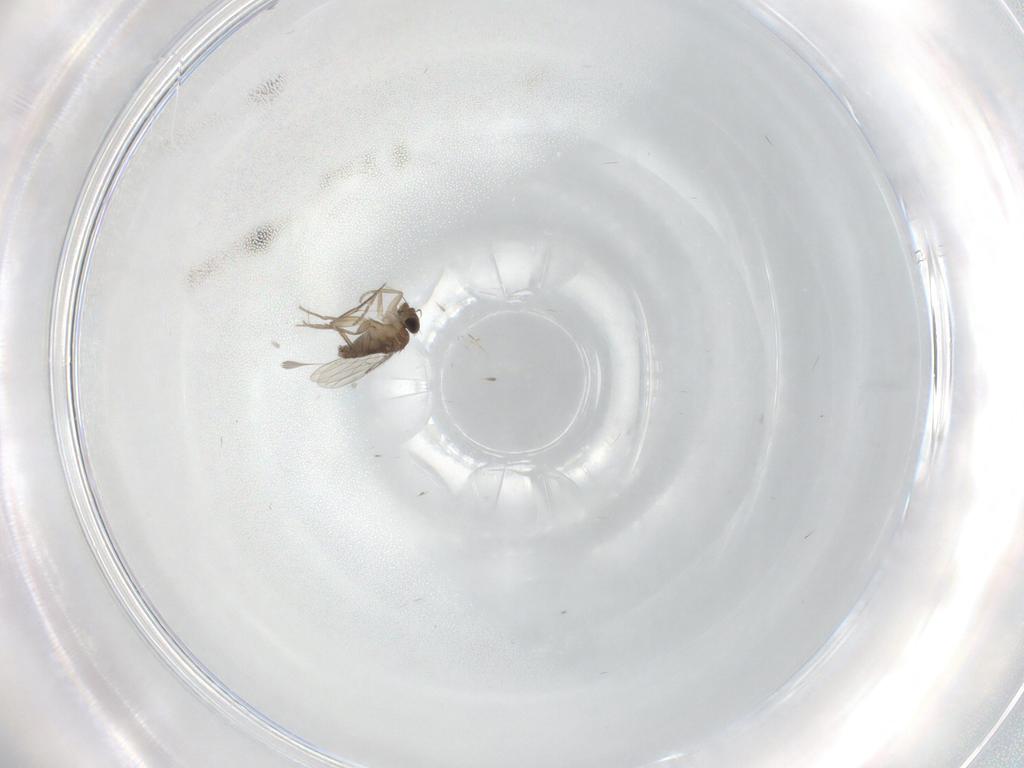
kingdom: Animalia
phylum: Arthropoda
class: Insecta
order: Diptera
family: Phoridae
